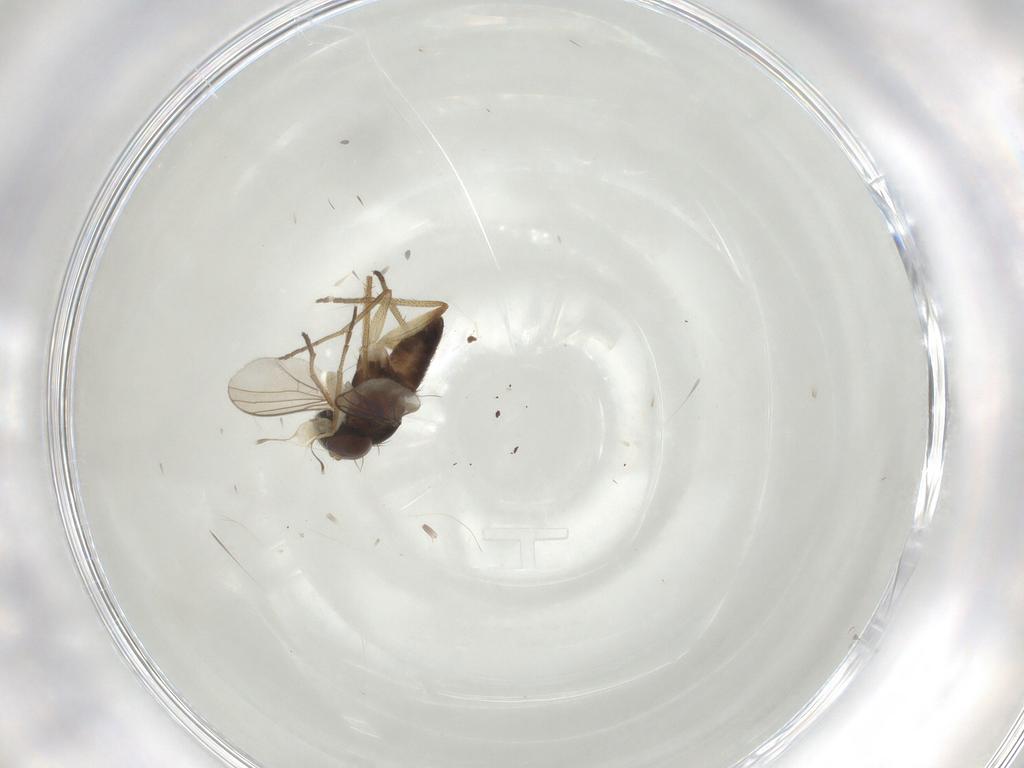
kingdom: Animalia
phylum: Arthropoda
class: Insecta
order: Diptera
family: Dolichopodidae
